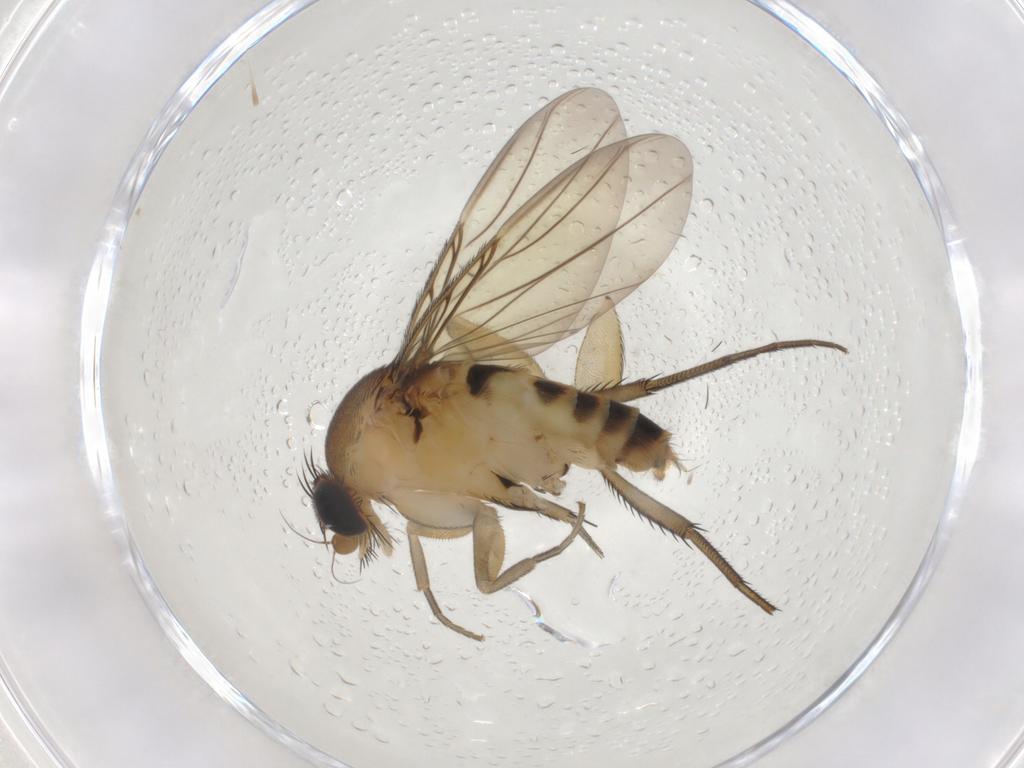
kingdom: Animalia
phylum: Arthropoda
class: Insecta
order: Diptera
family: Phoridae
